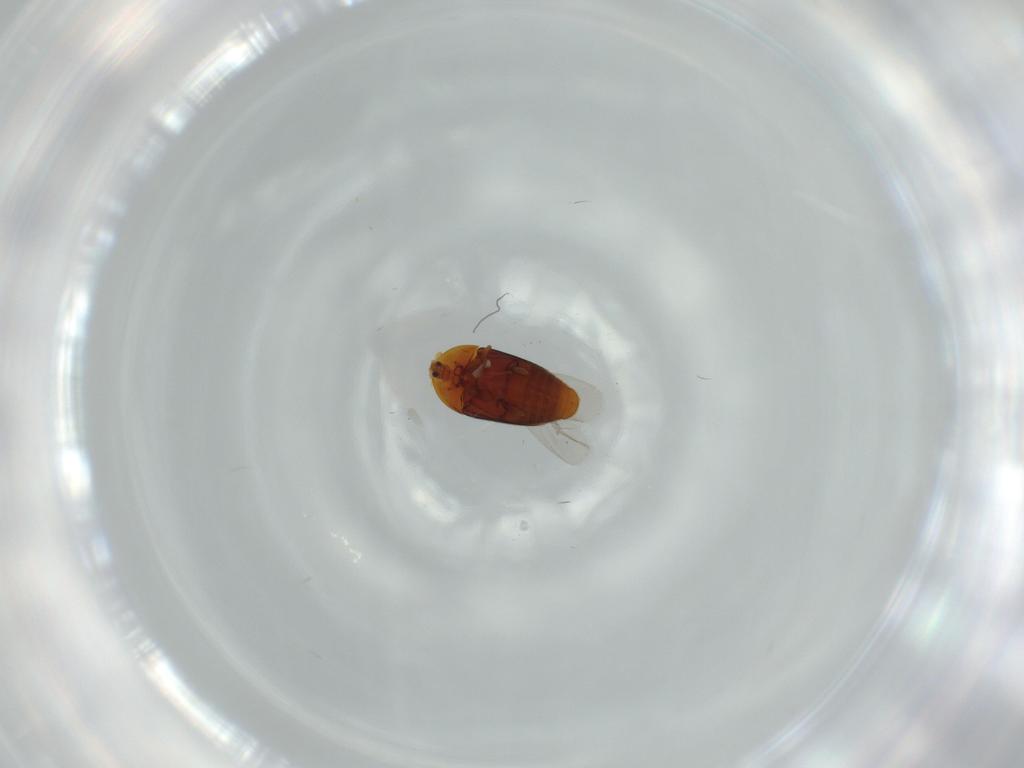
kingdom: Animalia
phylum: Arthropoda
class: Insecta
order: Coleoptera
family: Corylophidae
